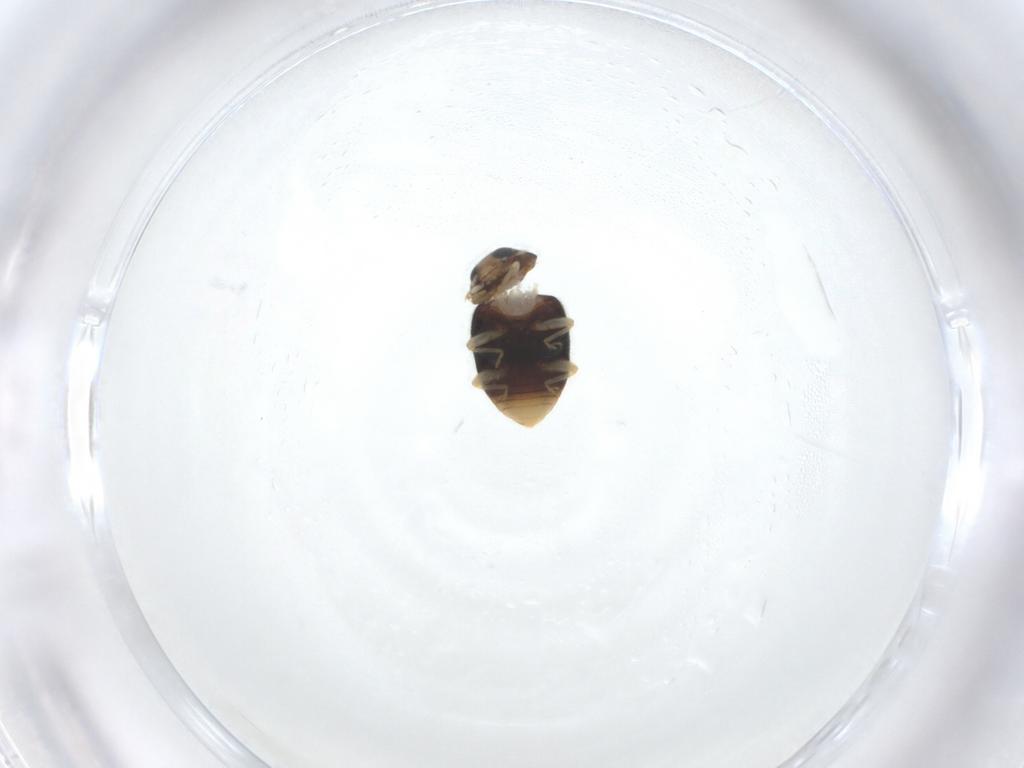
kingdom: Animalia
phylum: Arthropoda
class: Insecta
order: Coleoptera
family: Coccinellidae
